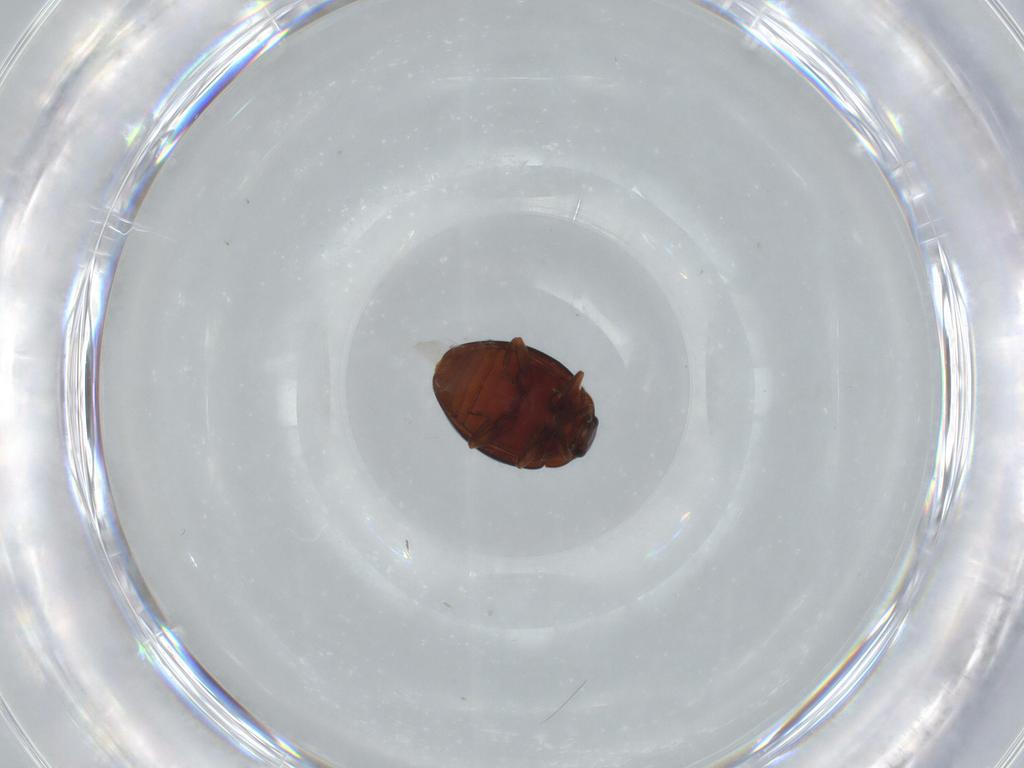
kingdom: Animalia
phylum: Arthropoda
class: Insecta
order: Coleoptera
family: Coccinellidae
